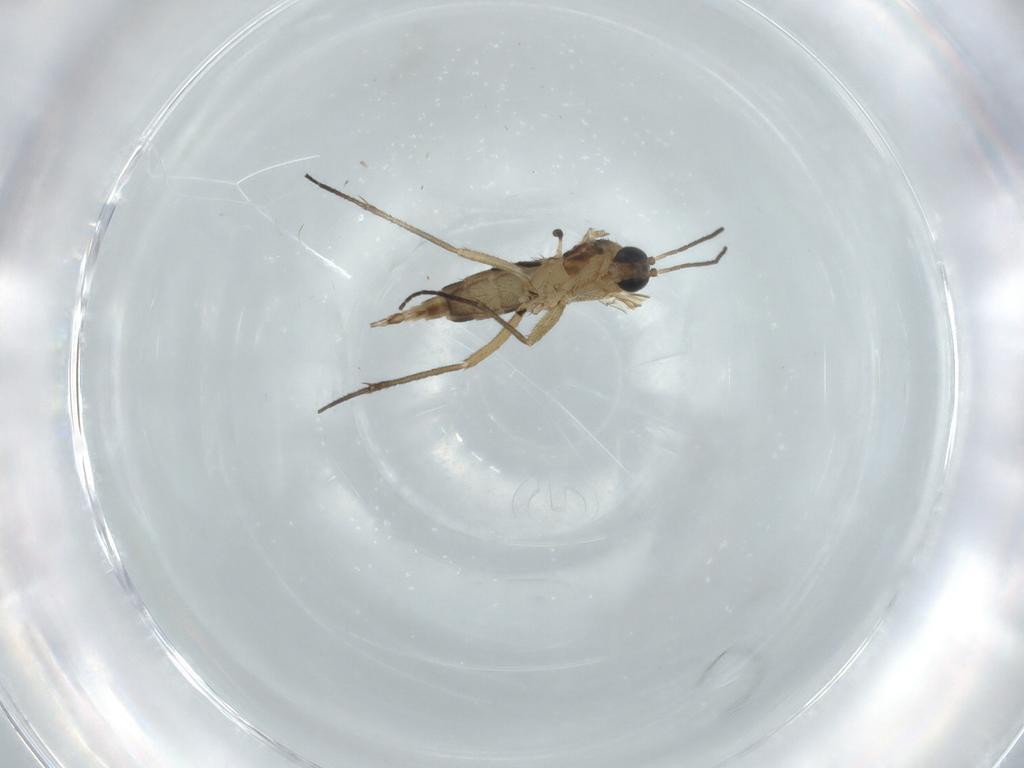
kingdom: Animalia
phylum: Arthropoda
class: Insecta
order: Diptera
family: Sciaridae
